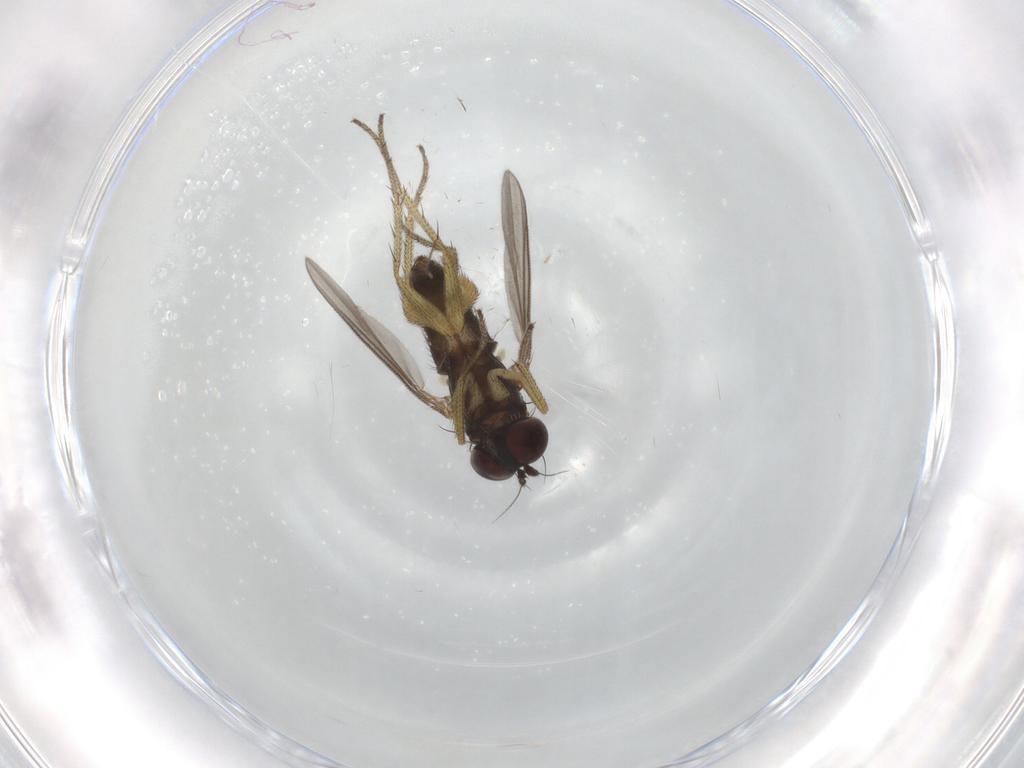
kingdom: Animalia
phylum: Arthropoda
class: Insecta
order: Diptera
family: Chironomidae
